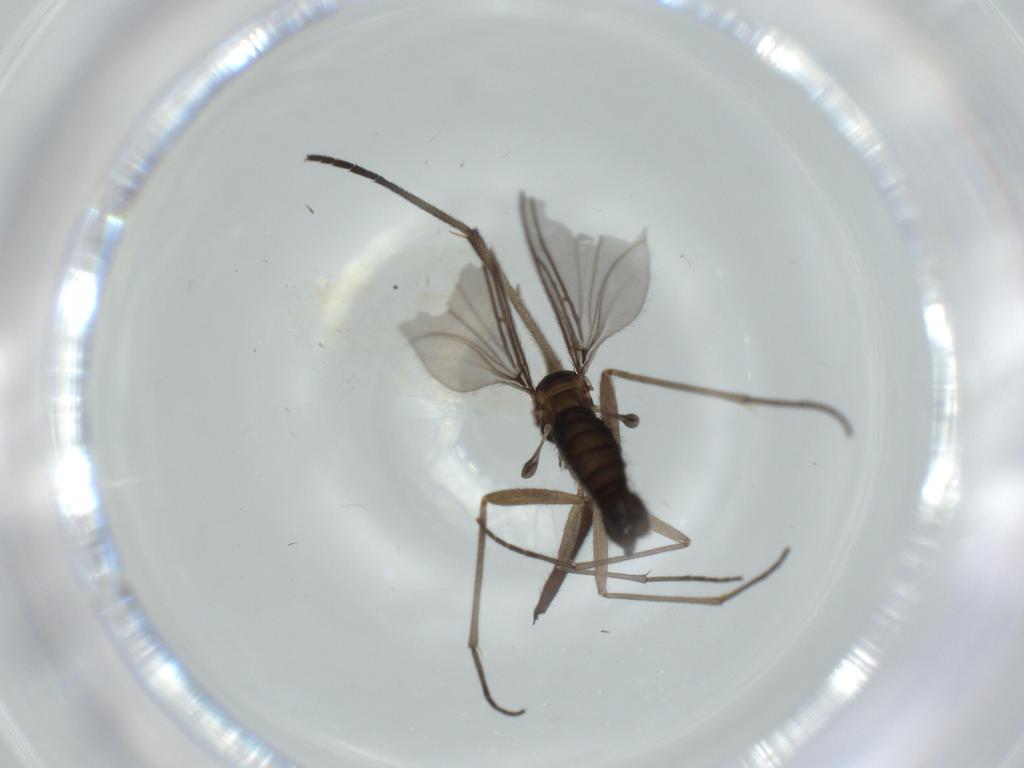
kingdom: Animalia
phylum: Arthropoda
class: Insecta
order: Diptera
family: Sciaridae
